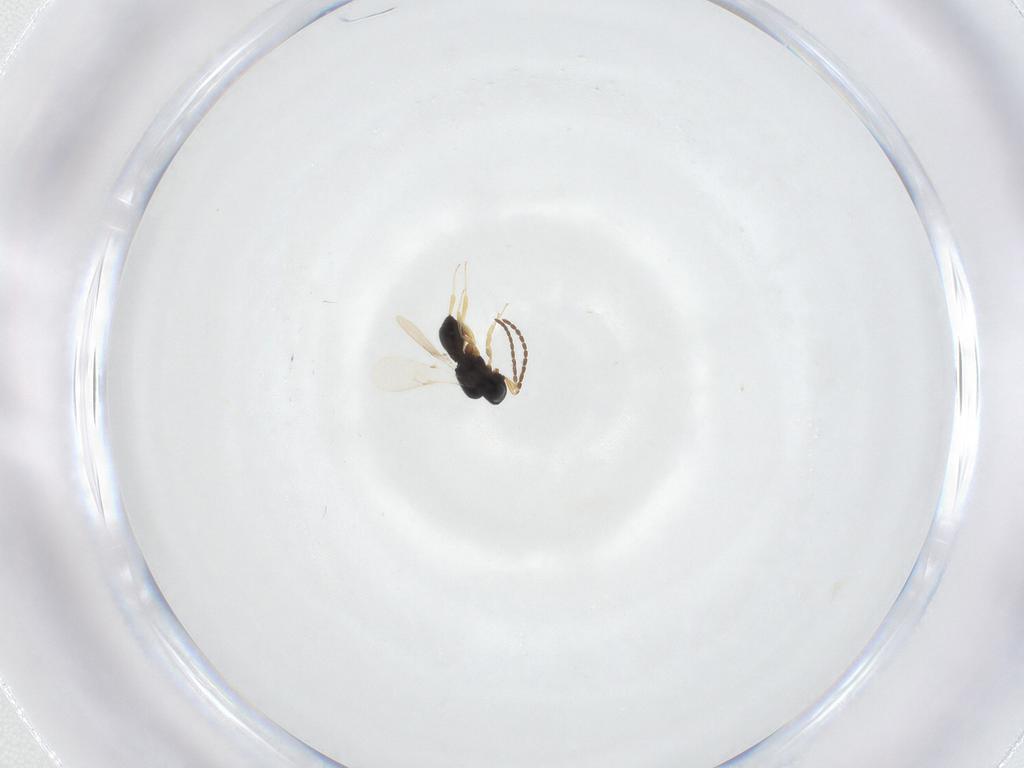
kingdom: Animalia
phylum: Arthropoda
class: Insecta
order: Hymenoptera
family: Scelionidae
